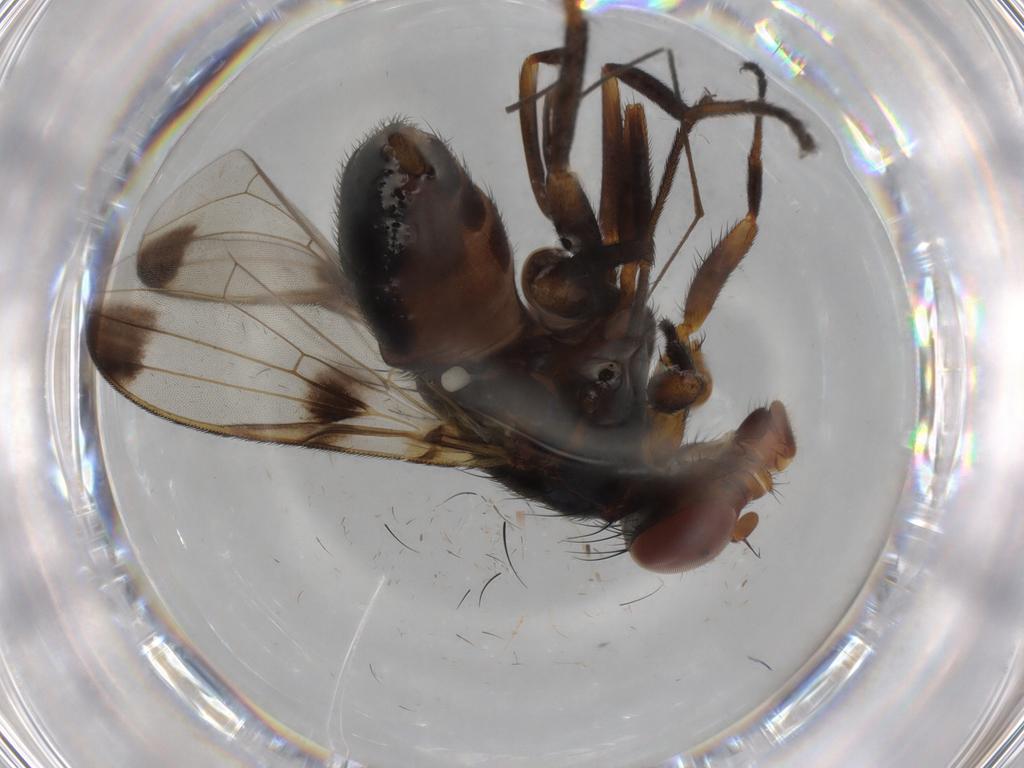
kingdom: Animalia
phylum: Arthropoda
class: Insecta
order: Diptera
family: Ulidiidae
